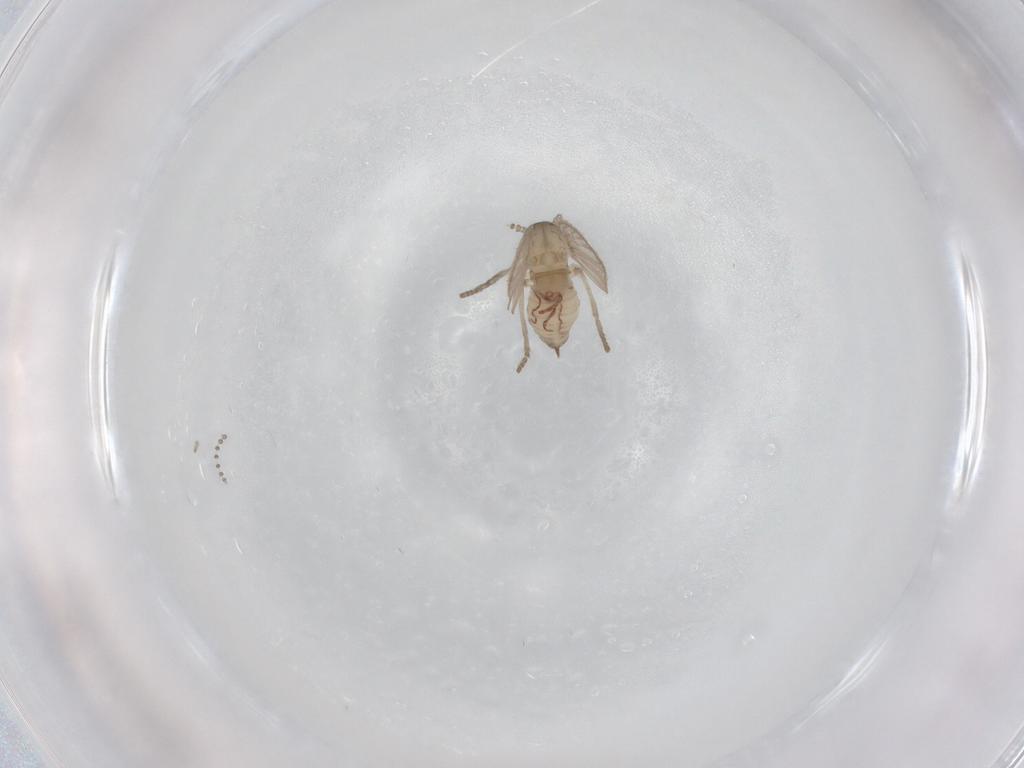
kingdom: Animalia
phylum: Arthropoda
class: Insecta
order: Diptera
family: Psychodidae
